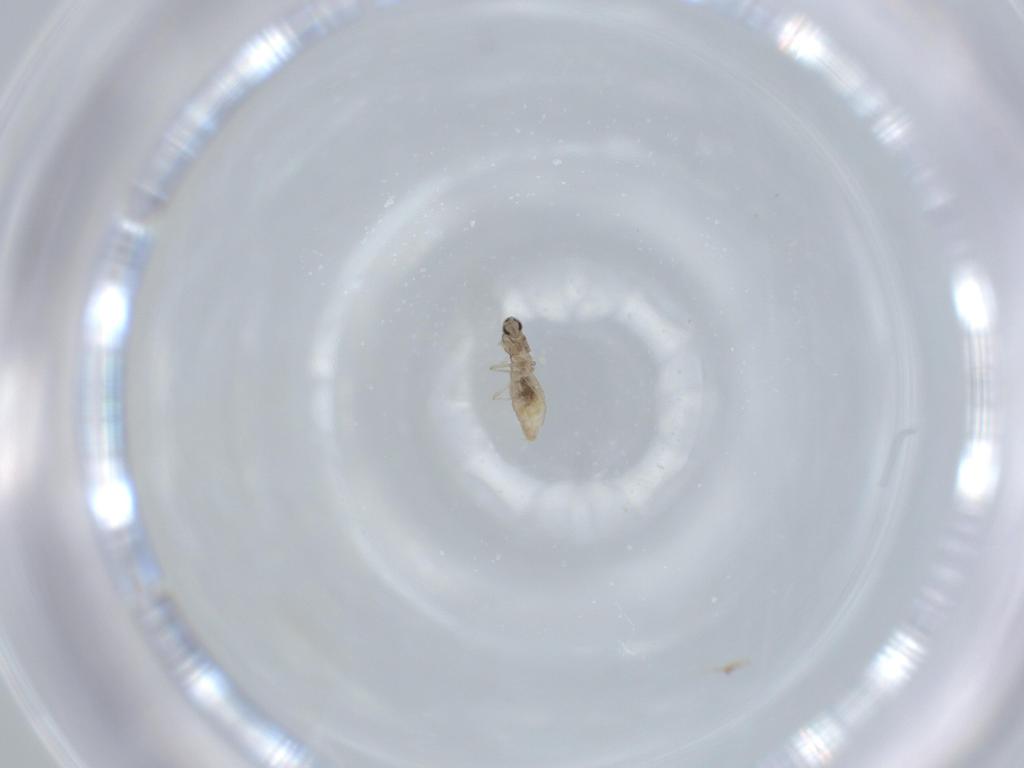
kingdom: Animalia
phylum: Arthropoda
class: Insecta
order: Diptera
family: Cecidomyiidae
